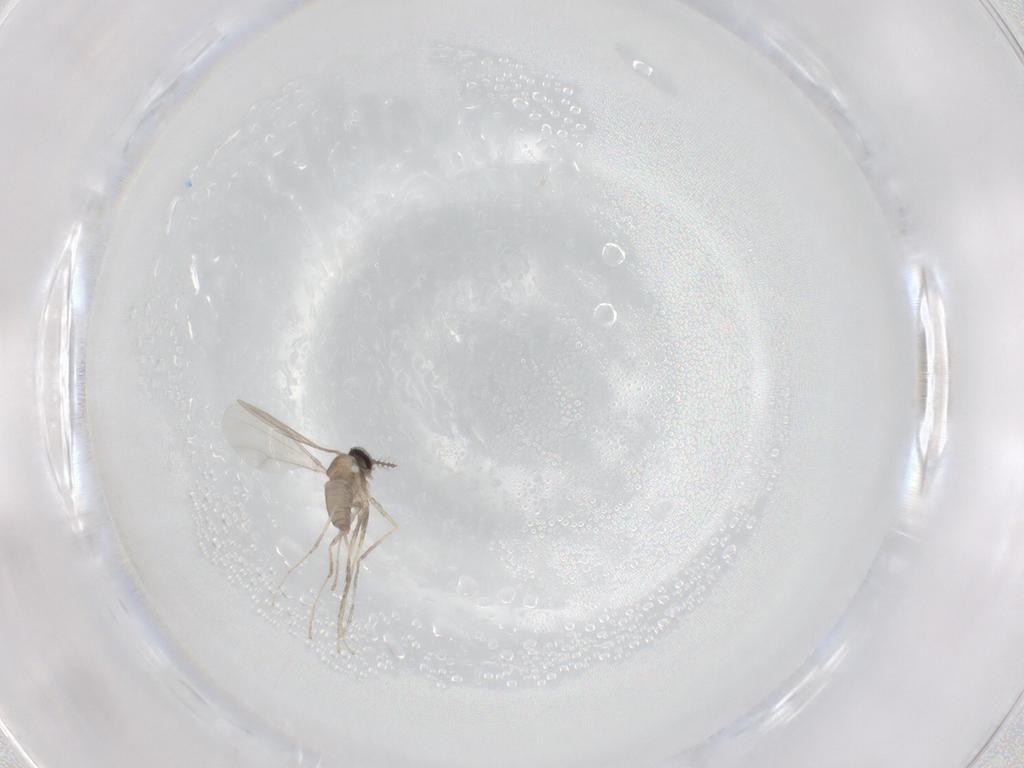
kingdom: Animalia
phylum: Arthropoda
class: Insecta
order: Diptera
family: Cecidomyiidae
